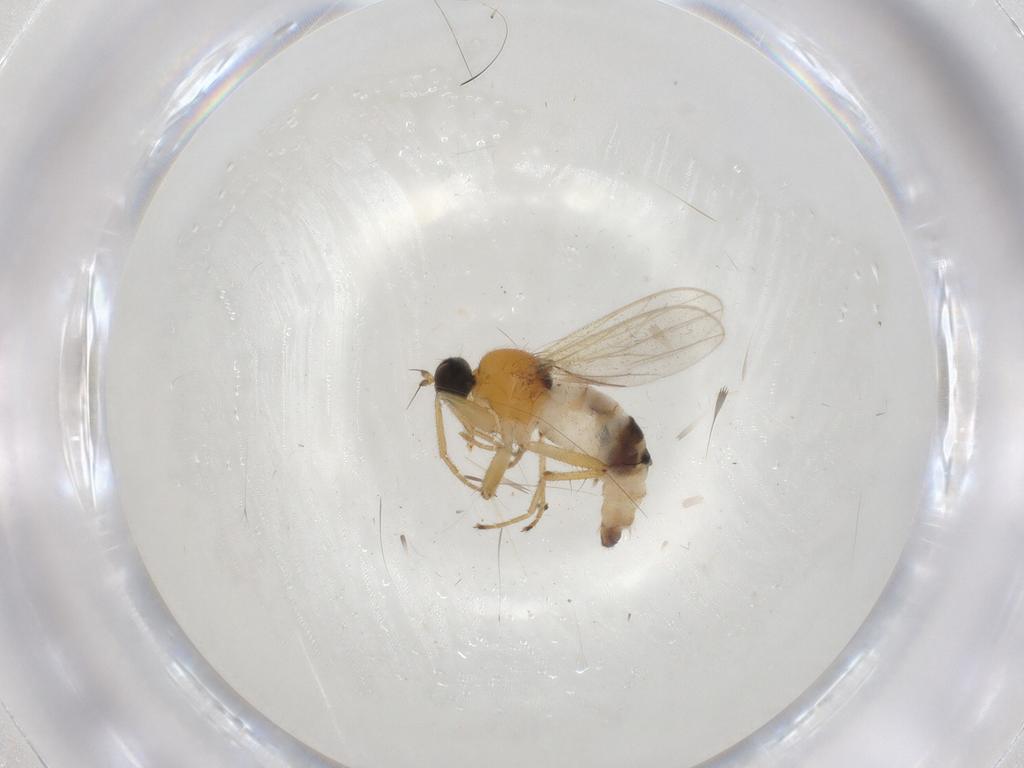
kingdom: Animalia
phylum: Arthropoda
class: Insecta
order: Diptera
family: Hybotidae
